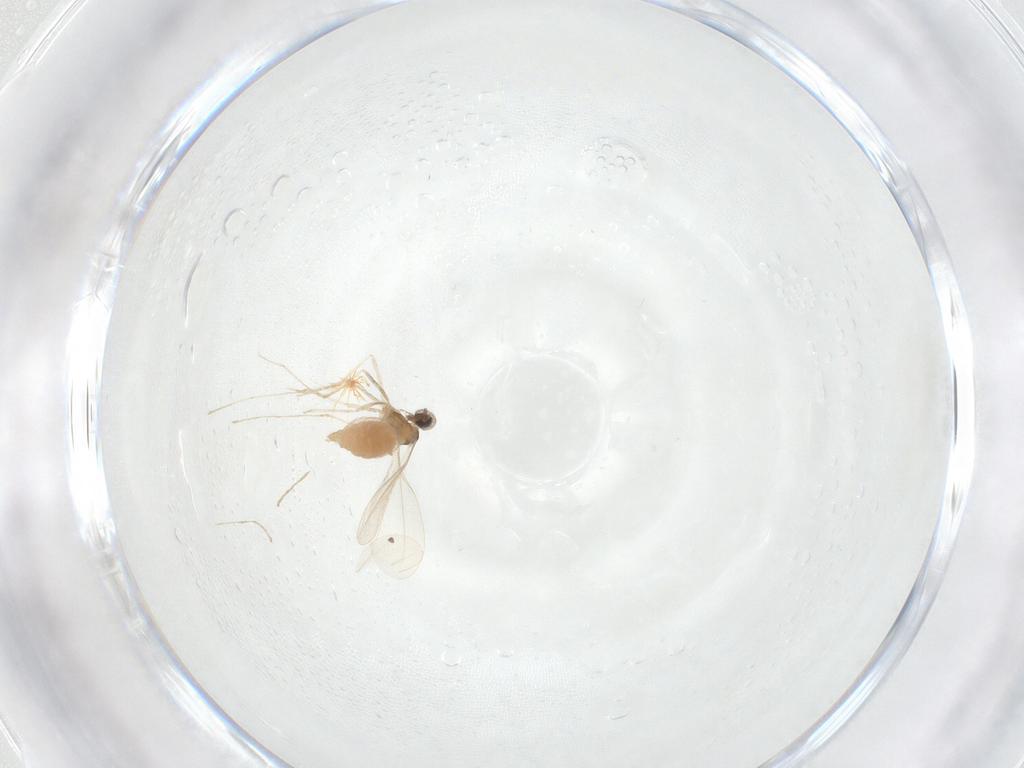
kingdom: Animalia
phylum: Arthropoda
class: Insecta
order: Diptera
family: Cecidomyiidae
